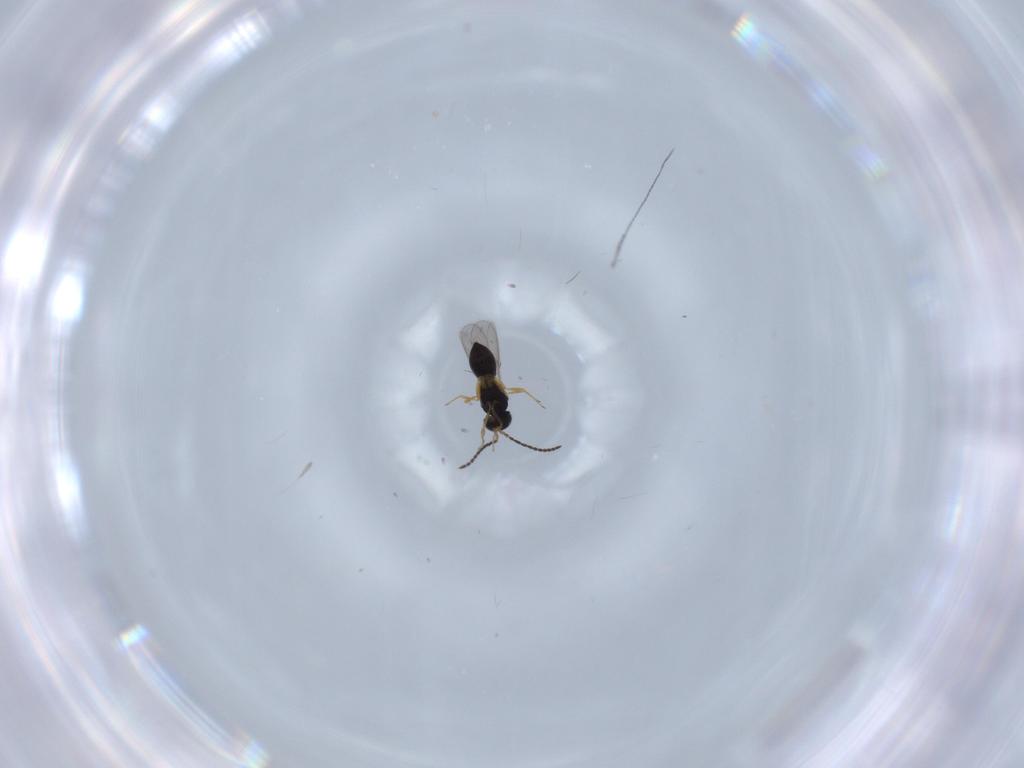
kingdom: Animalia
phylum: Arthropoda
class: Insecta
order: Hymenoptera
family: Scelionidae
